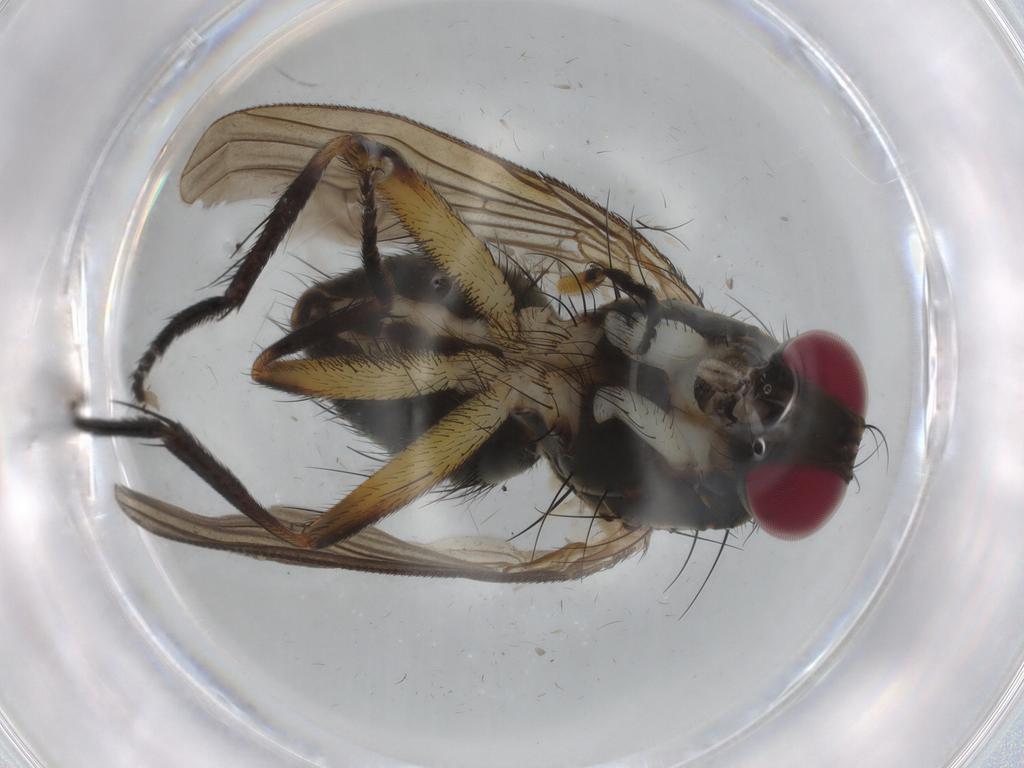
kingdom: Animalia
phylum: Arthropoda
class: Insecta
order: Diptera
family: Muscidae
